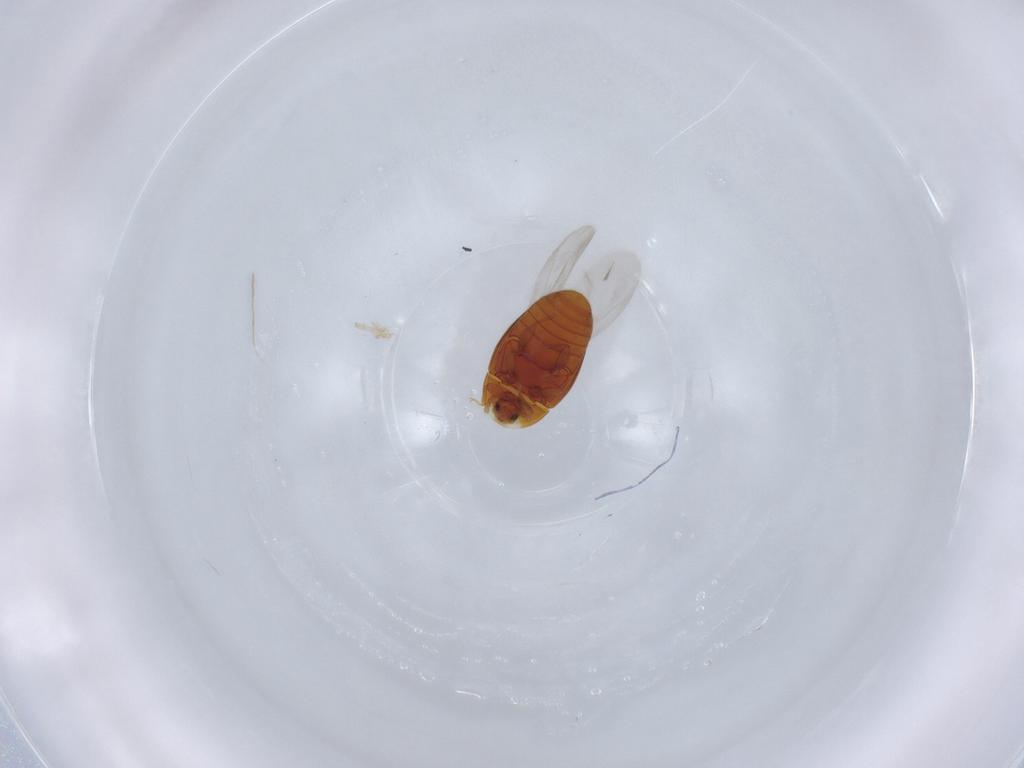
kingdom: Animalia
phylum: Arthropoda
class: Insecta
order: Coleoptera
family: Corylophidae
